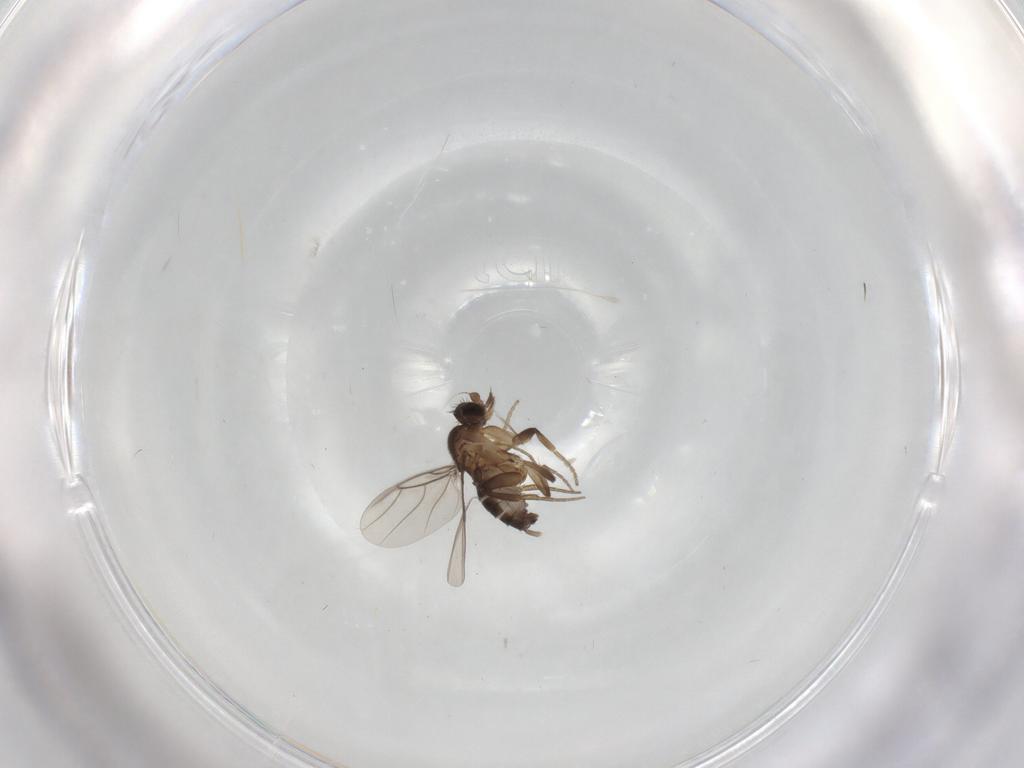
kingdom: Animalia
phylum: Arthropoda
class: Insecta
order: Diptera
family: Phoridae
